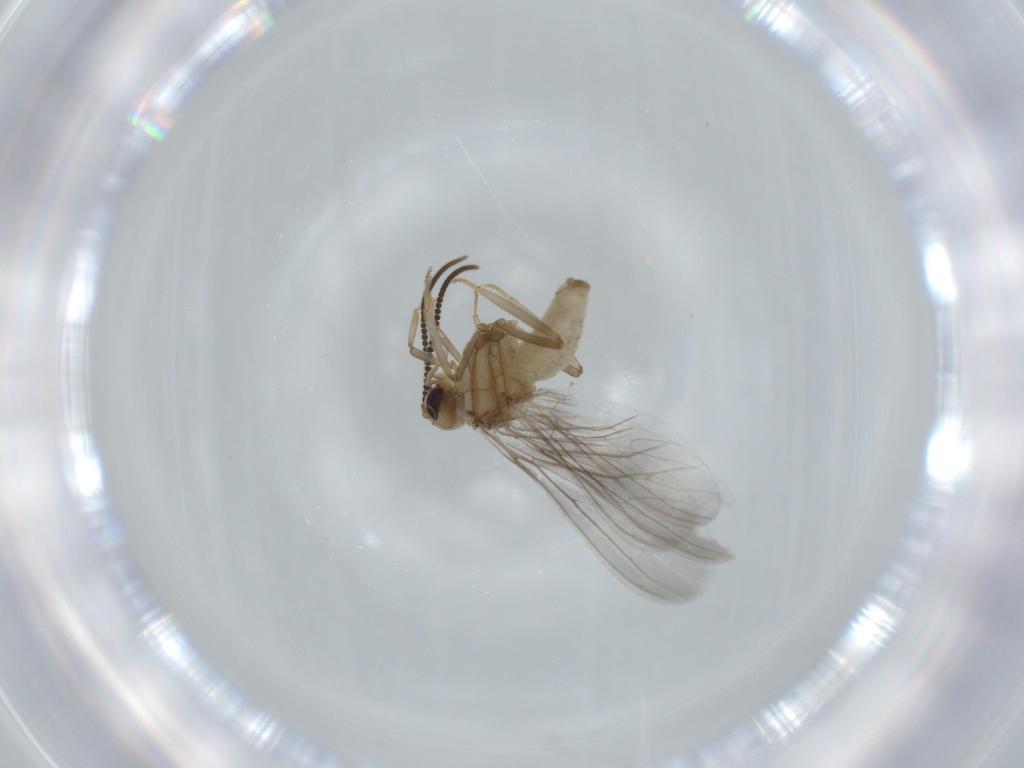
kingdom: Animalia
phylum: Arthropoda
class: Insecta
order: Neuroptera
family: Coniopterygidae
